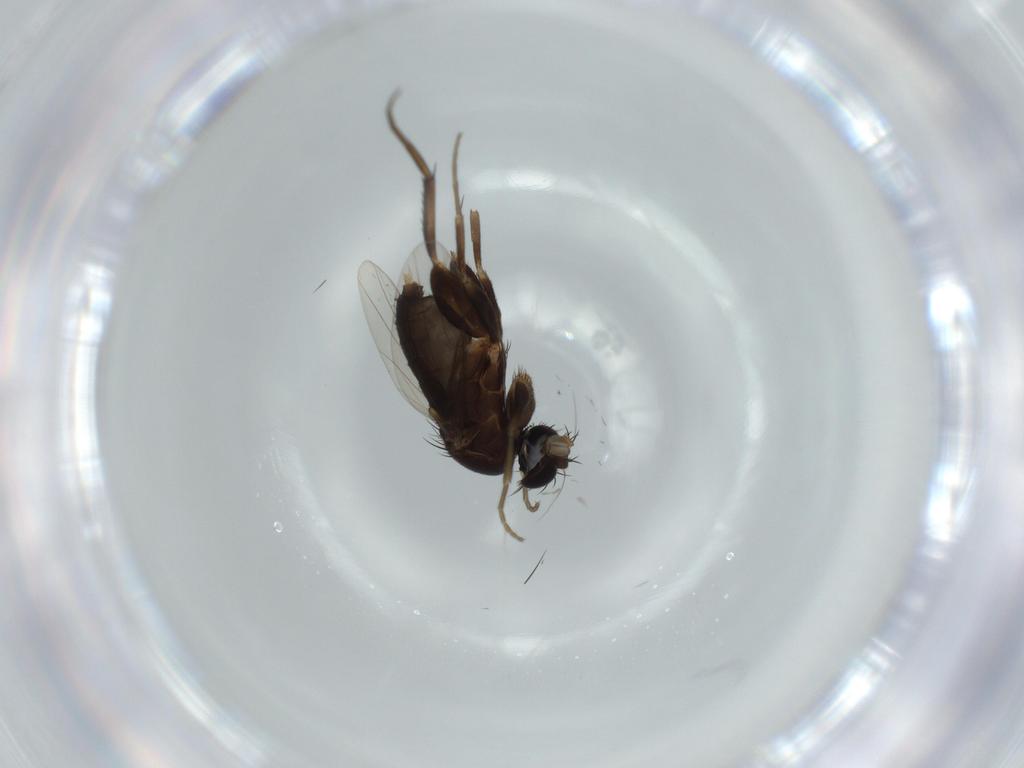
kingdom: Animalia
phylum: Arthropoda
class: Insecta
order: Diptera
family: Phoridae
